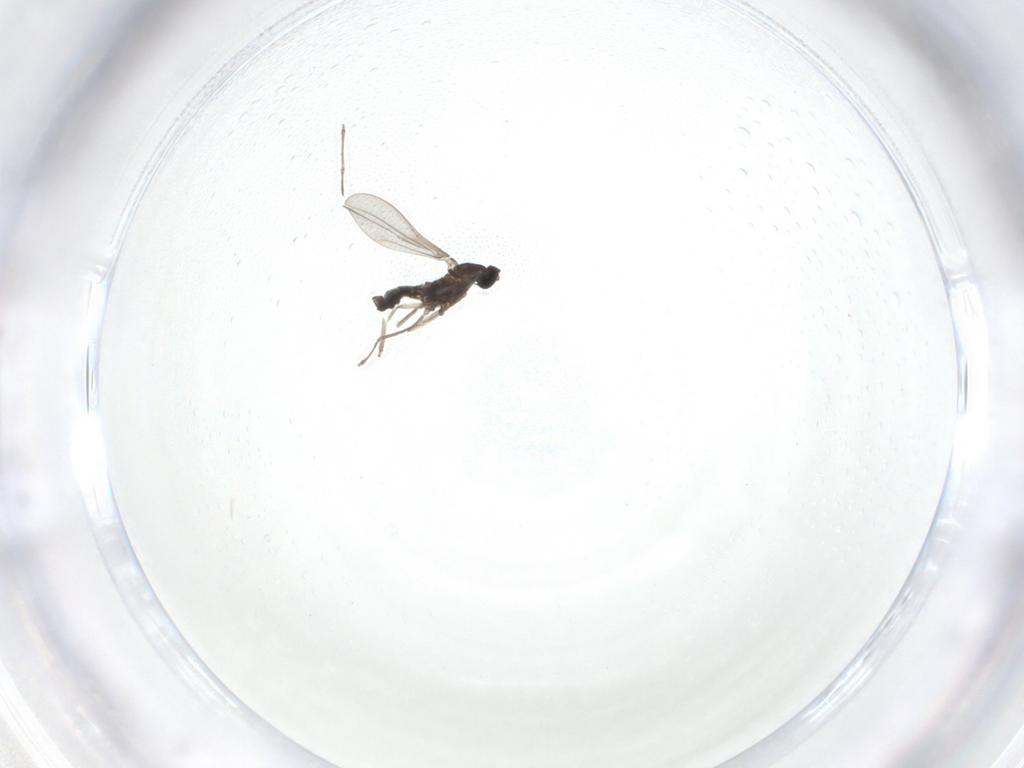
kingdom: Animalia
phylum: Arthropoda
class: Insecta
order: Diptera
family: Cecidomyiidae
